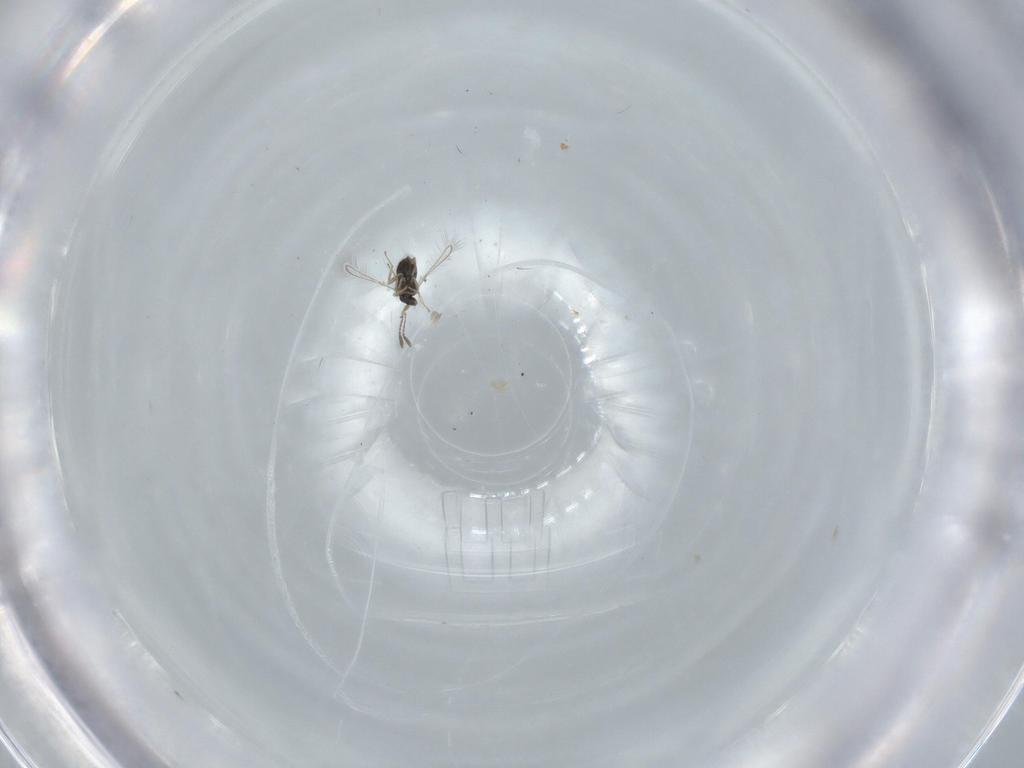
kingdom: Animalia
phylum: Arthropoda
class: Insecta
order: Hymenoptera
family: Mymaridae
